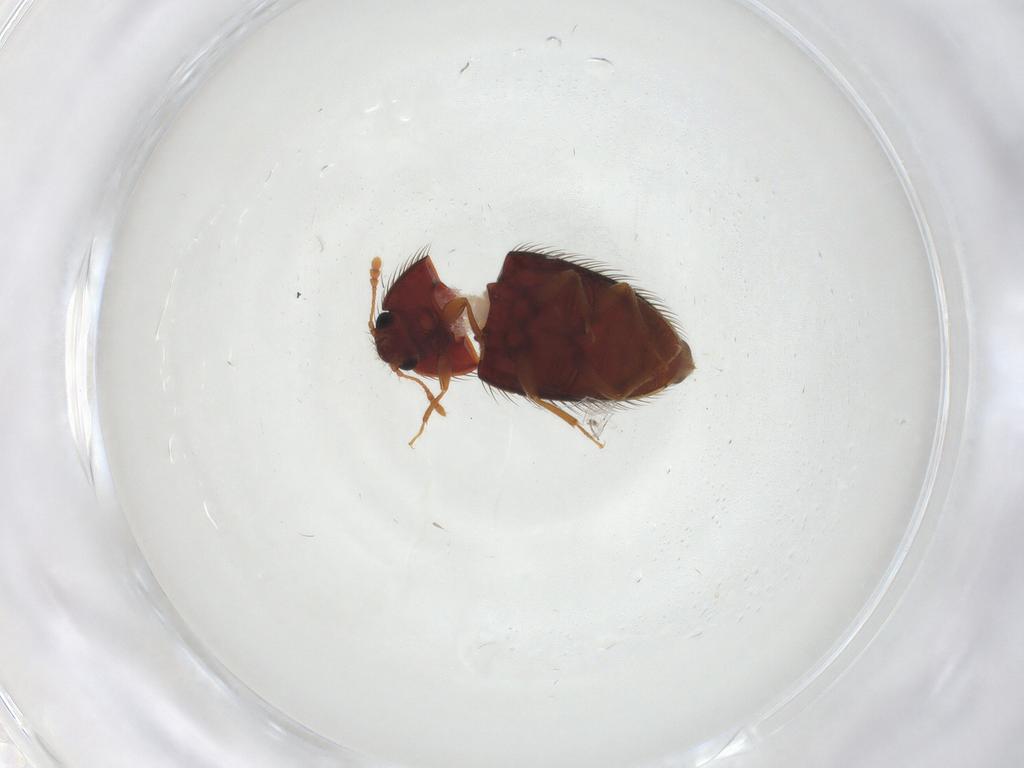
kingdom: Animalia
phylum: Arthropoda
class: Insecta
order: Coleoptera
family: Biphyllidae
